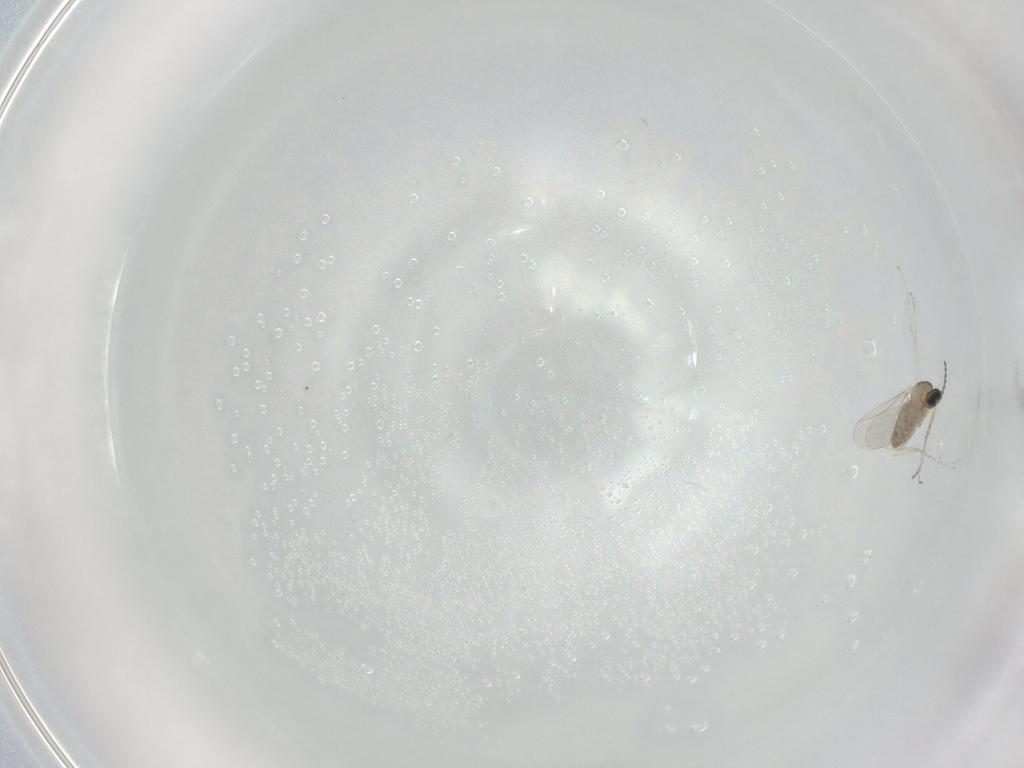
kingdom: Animalia
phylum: Arthropoda
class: Insecta
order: Diptera
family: Cecidomyiidae
